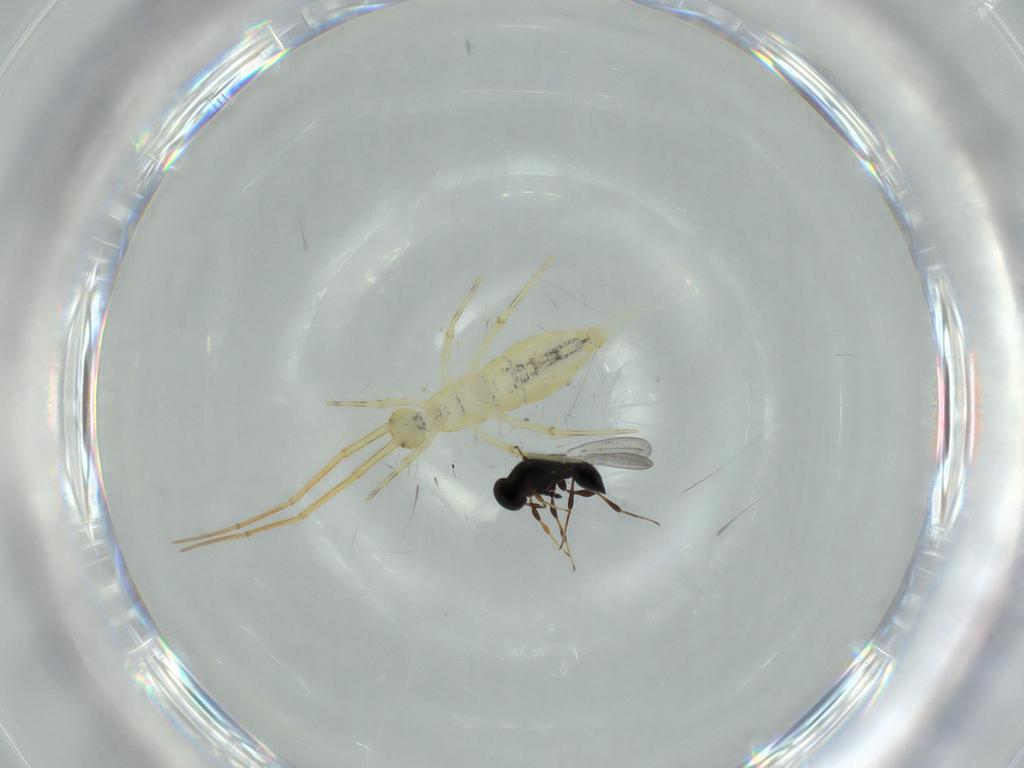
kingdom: Animalia
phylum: Arthropoda
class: Collembola
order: Entomobryomorpha
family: Paronellidae
